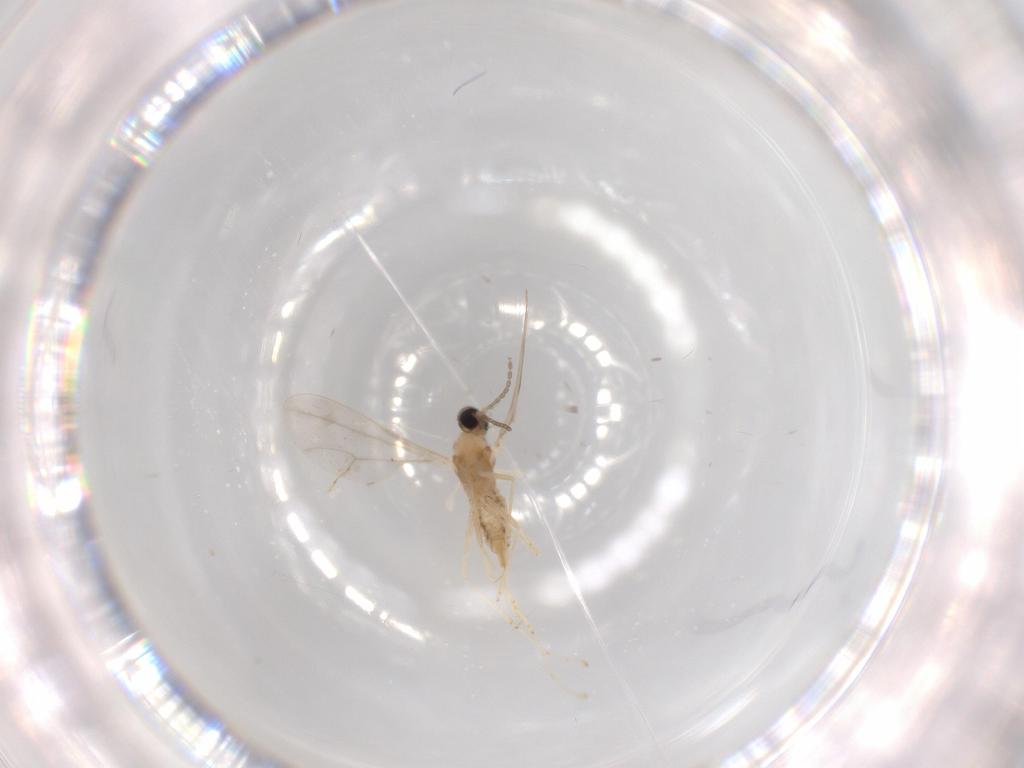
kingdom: Animalia
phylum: Arthropoda
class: Insecta
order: Diptera
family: Cecidomyiidae
